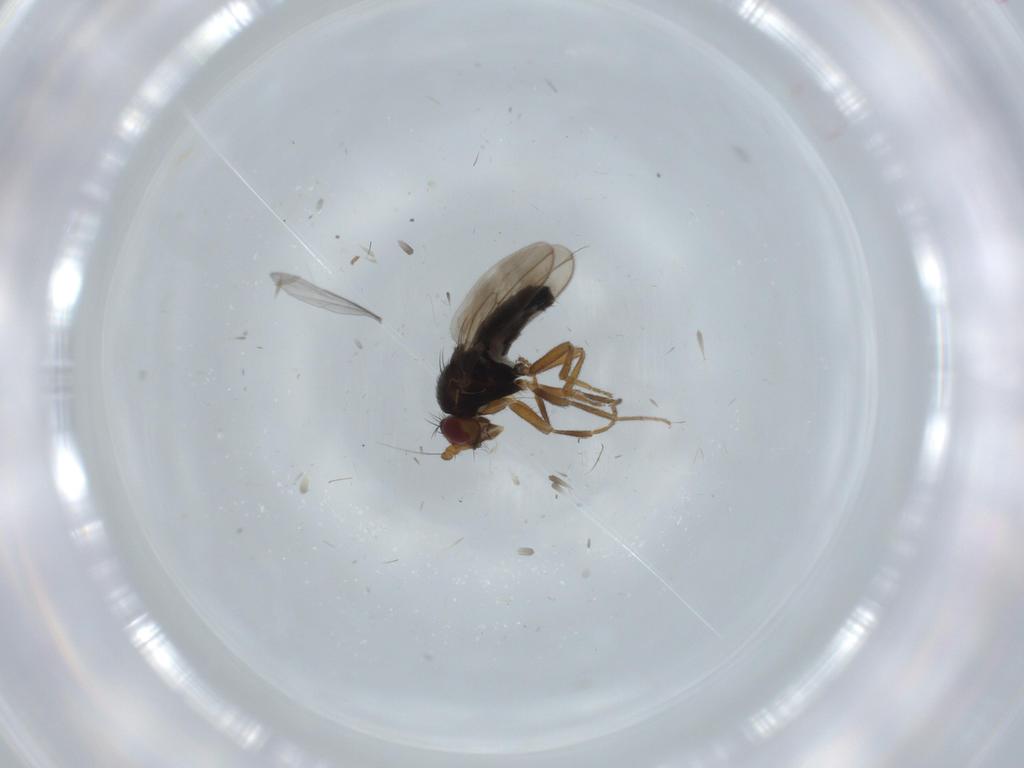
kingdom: Animalia
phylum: Arthropoda
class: Insecta
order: Diptera
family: Sphaeroceridae
